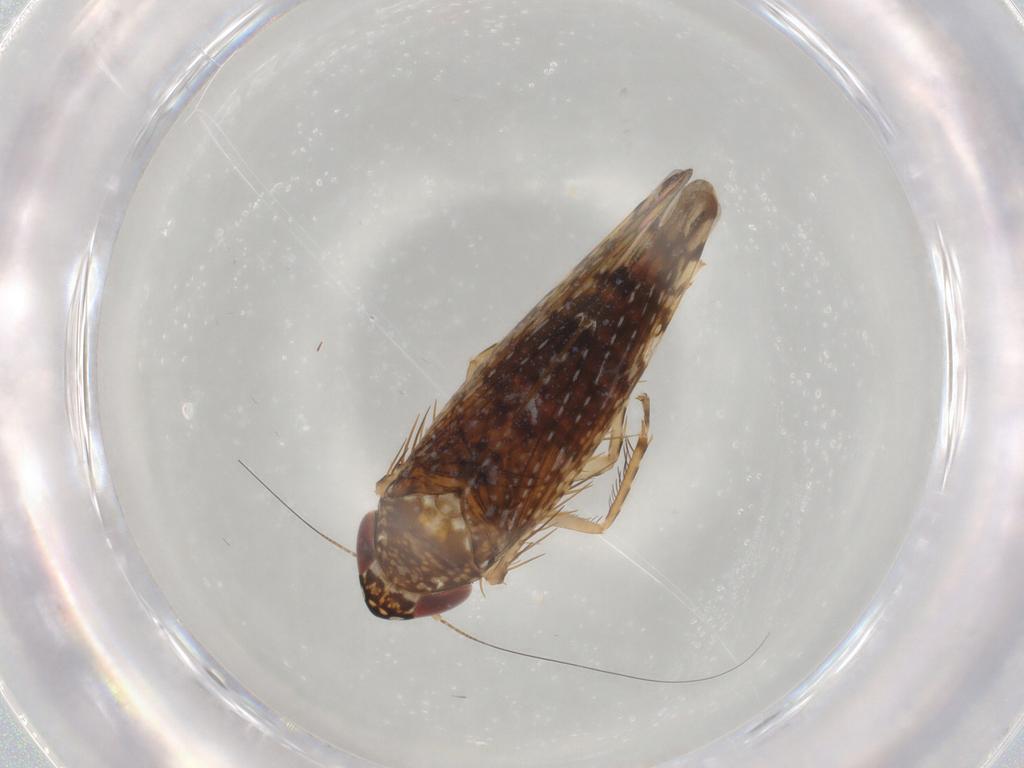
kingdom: Animalia
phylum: Arthropoda
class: Insecta
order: Hemiptera
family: Cicadellidae
